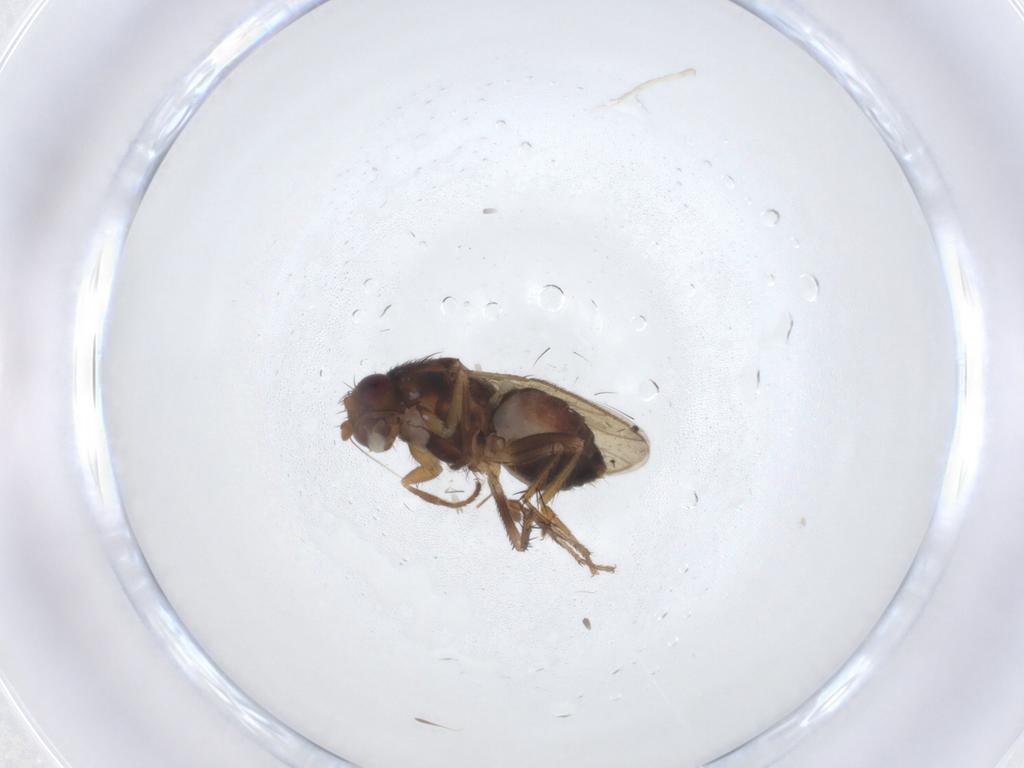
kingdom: Animalia
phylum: Arthropoda
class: Insecta
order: Diptera
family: Sphaeroceridae
